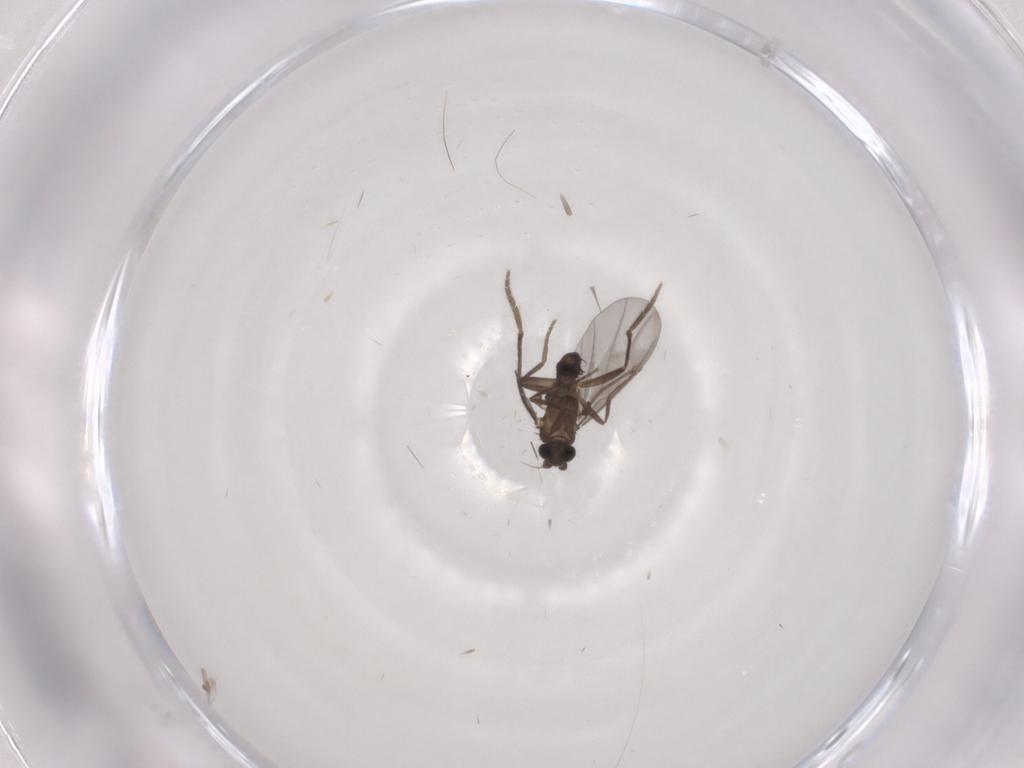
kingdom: Animalia
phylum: Arthropoda
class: Insecta
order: Diptera
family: Phoridae
